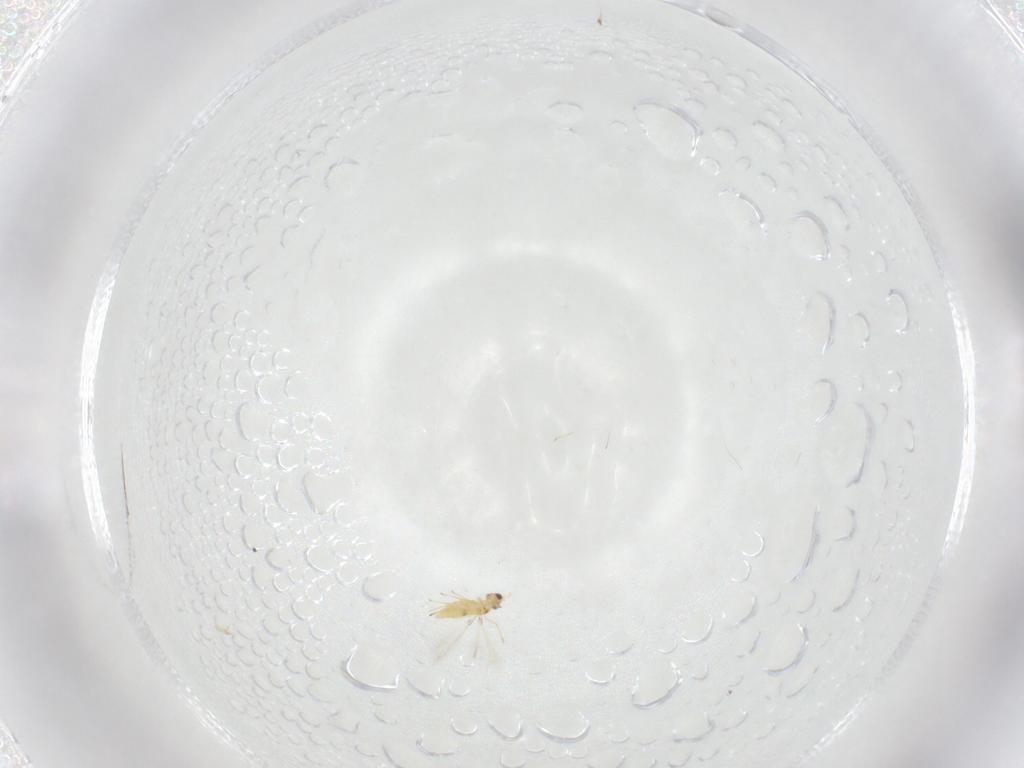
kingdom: Animalia
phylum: Arthropoda
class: Insecta
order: Hymenoptera
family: Mymaridae
